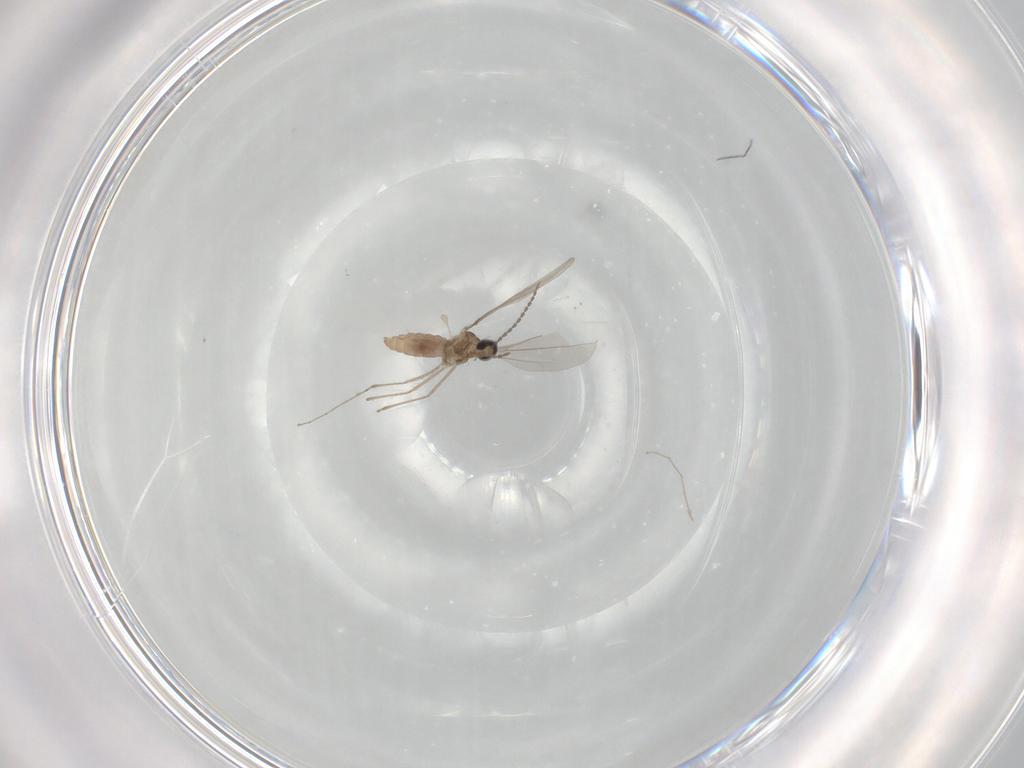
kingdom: Animalia
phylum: Arthropoda
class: Insecta
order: Diptera
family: Cecidomyiidae
